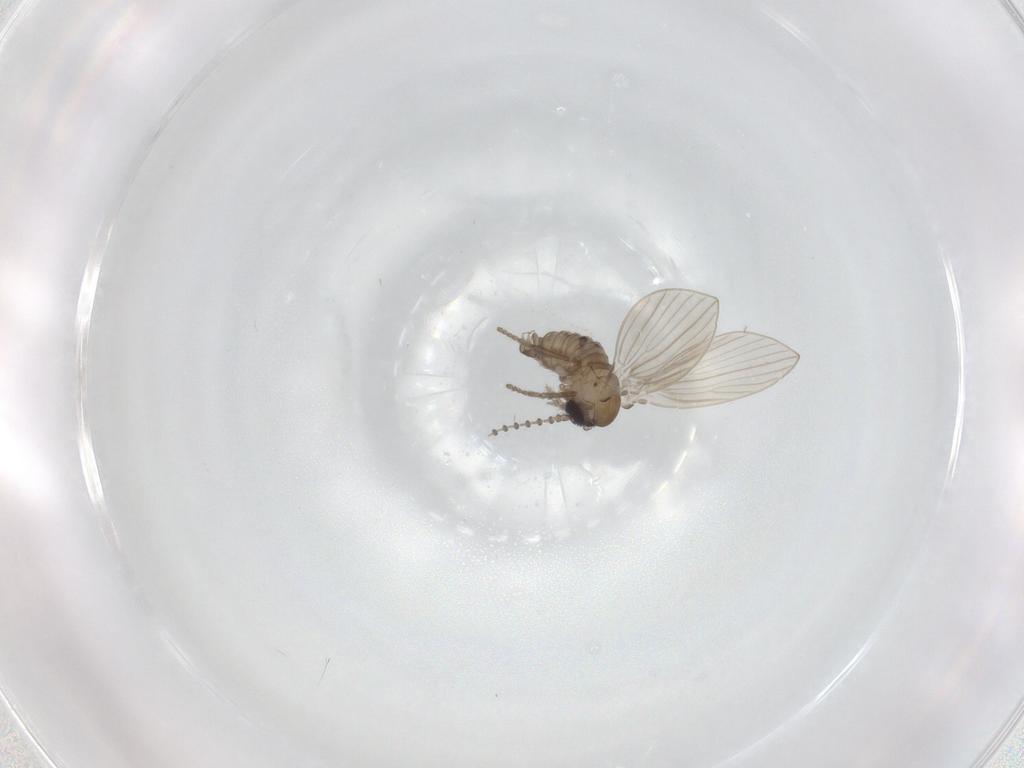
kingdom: Animalia
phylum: Arthropoda
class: Insecta
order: Diptera
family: Psychodidae
